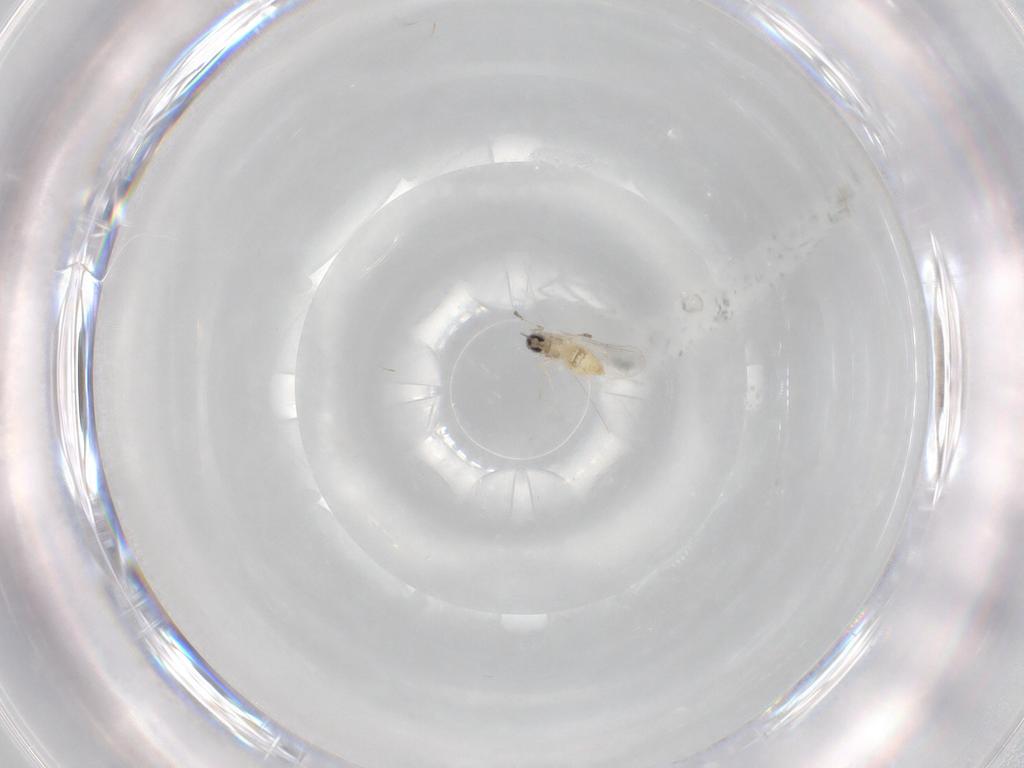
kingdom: Animalia
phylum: Arthropoda
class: Insecta
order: Diptera
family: Cecidomyiidae
